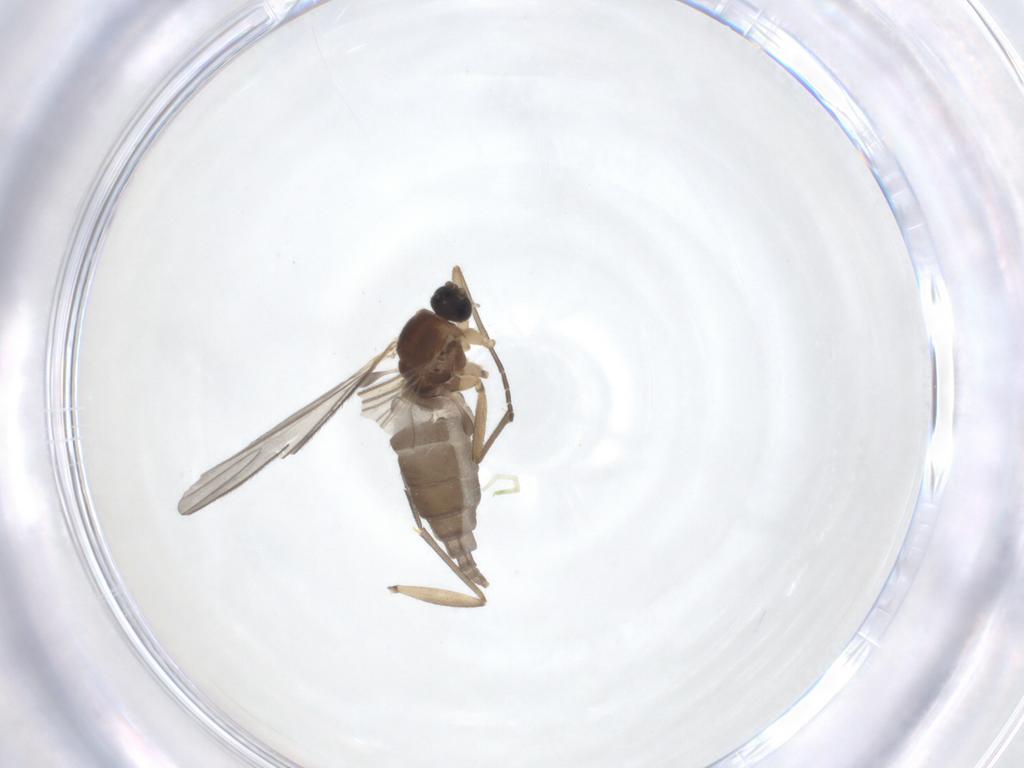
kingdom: Animalia
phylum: Arthropoda
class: Insecta
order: Diptera
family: Sciaridae
